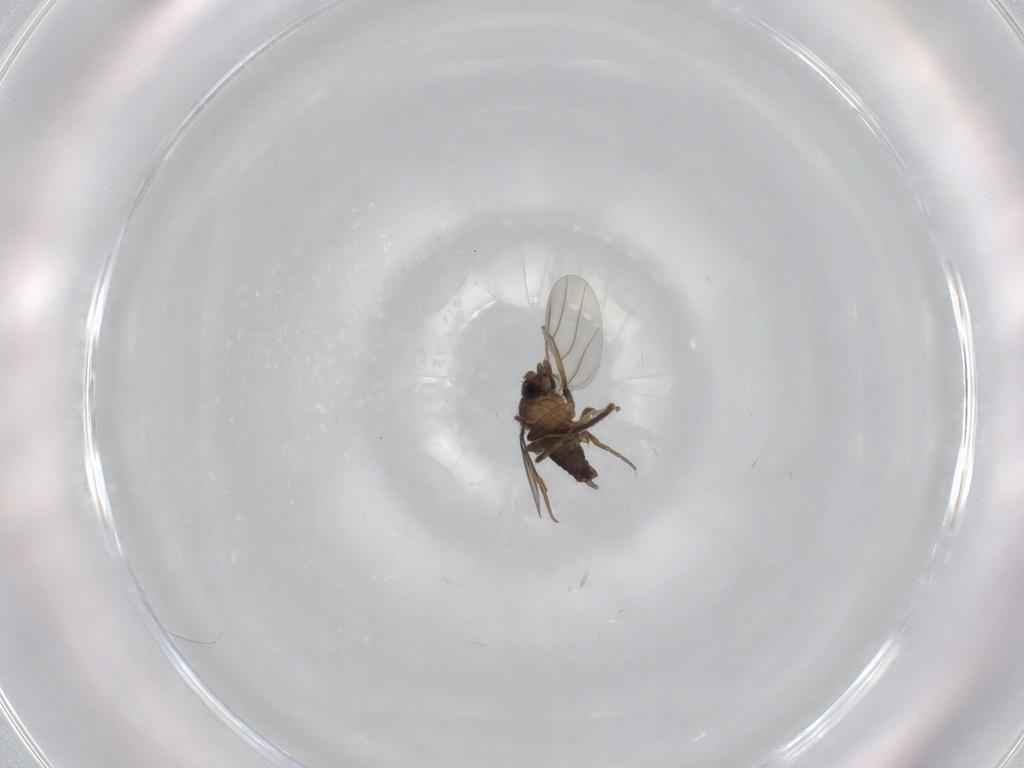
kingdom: Animalia
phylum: Arthropoda
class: Insecta
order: Diptera
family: Sciaridae
